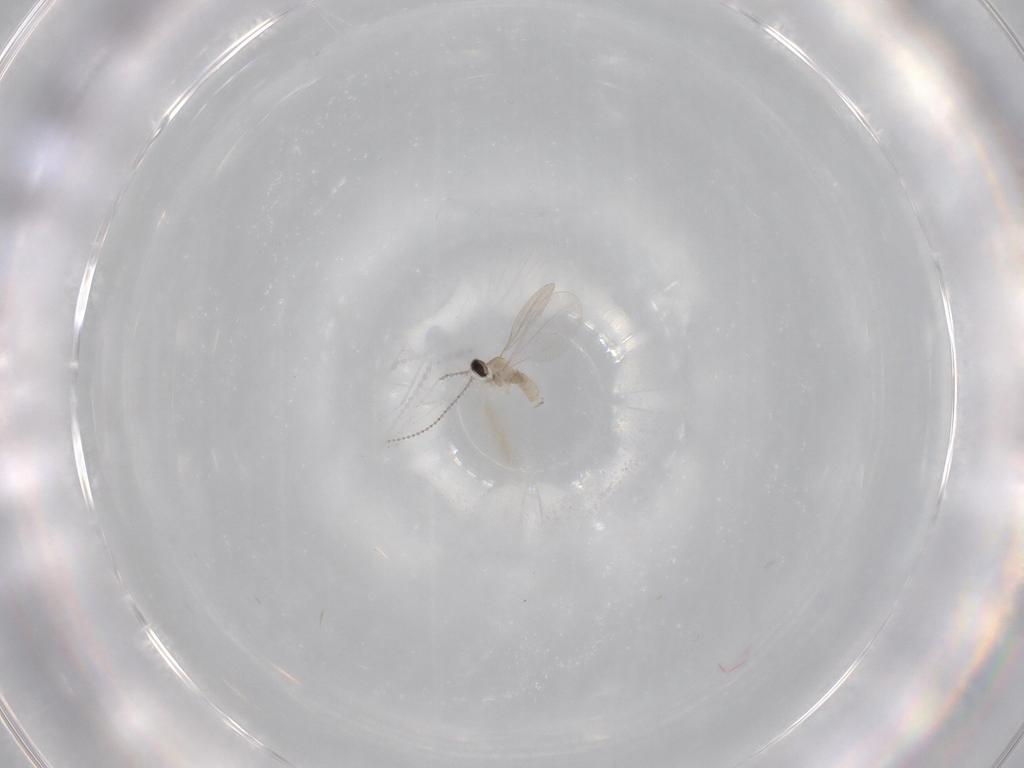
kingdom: Animalia
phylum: Arthropoda
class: Insecta
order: Diptera
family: Cecidomyiidae
